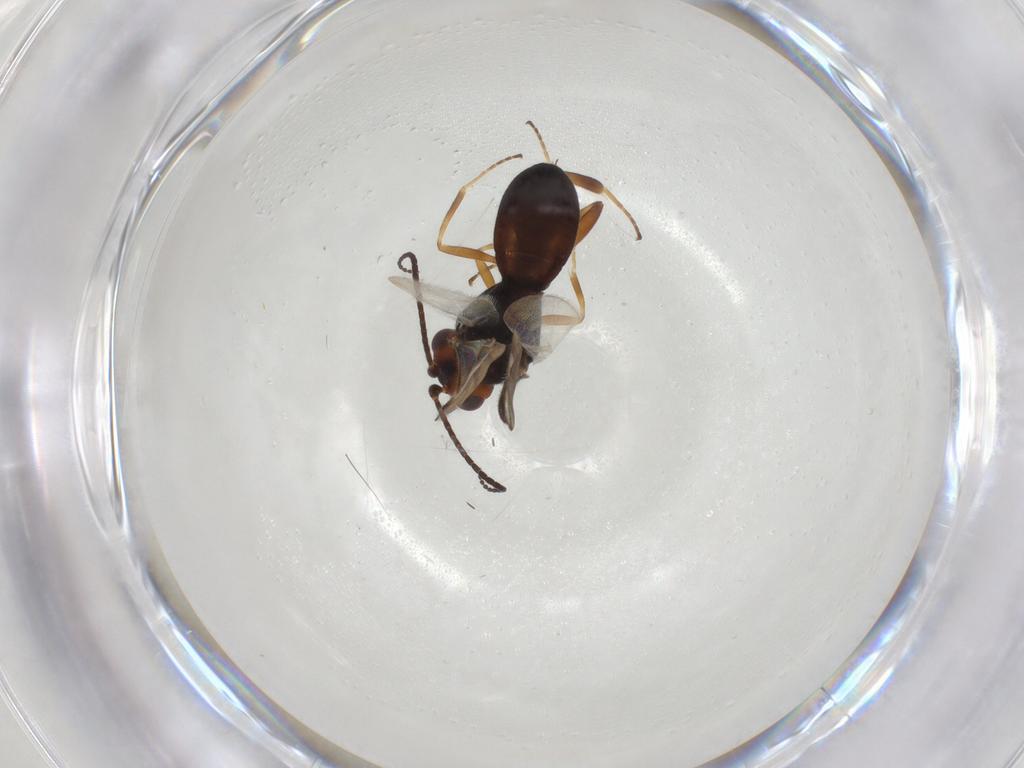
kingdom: Animalia
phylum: Arthropoda
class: Insecta
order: Hymenoptera
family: Braconidae
